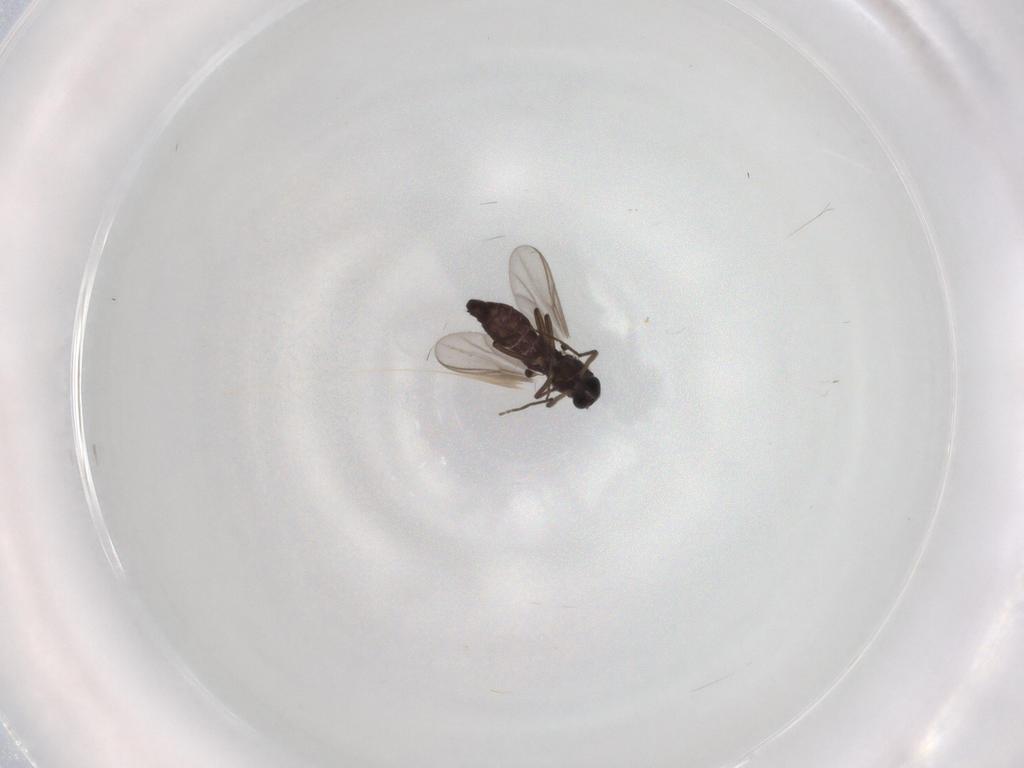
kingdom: Animalia
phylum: Arthropoda
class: Insecta
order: Diptera
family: Chironomidae
